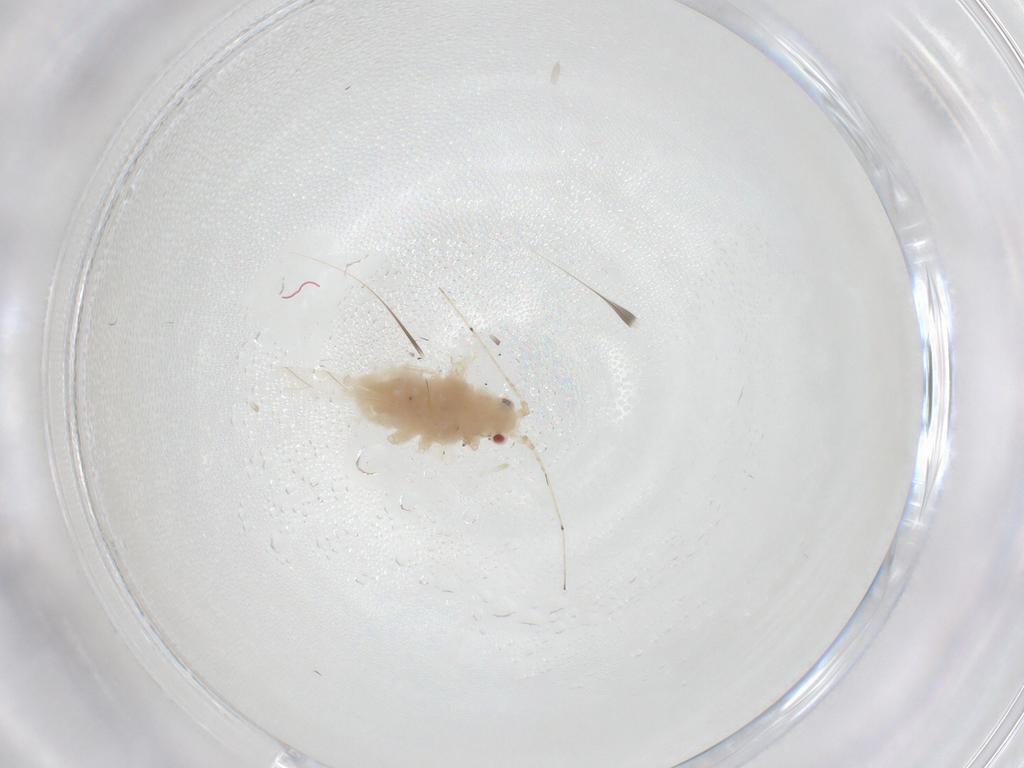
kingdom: Animalia
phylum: Arthropoda
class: Insecta
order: Hemiptera
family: Aphididae
